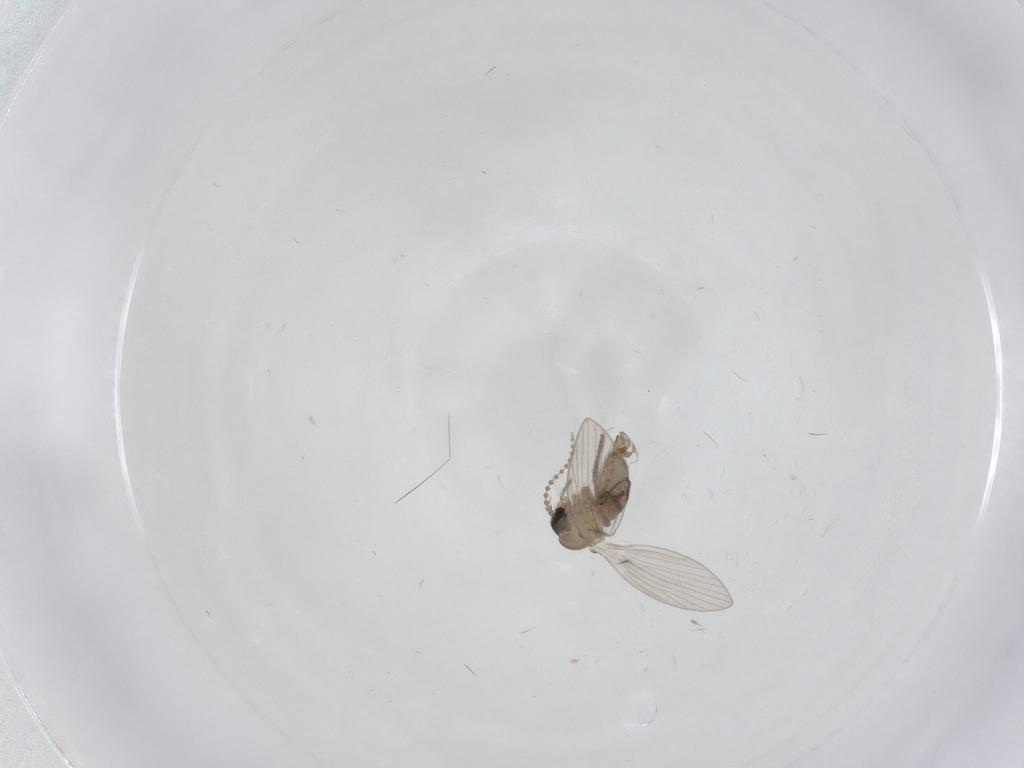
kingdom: Animalia
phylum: Arthropoda
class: Insecta
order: Diptera
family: Psychodidae
